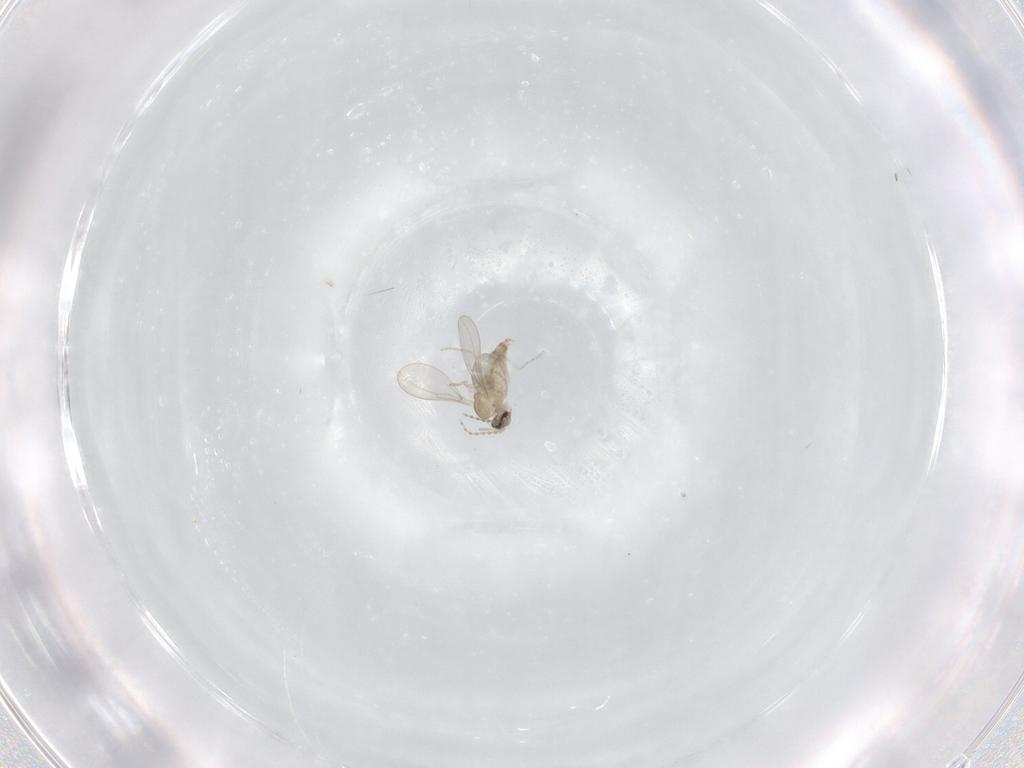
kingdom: Animalia
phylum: Arthropoda
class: Insecta
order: Diptera
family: Cecidomyiidae
